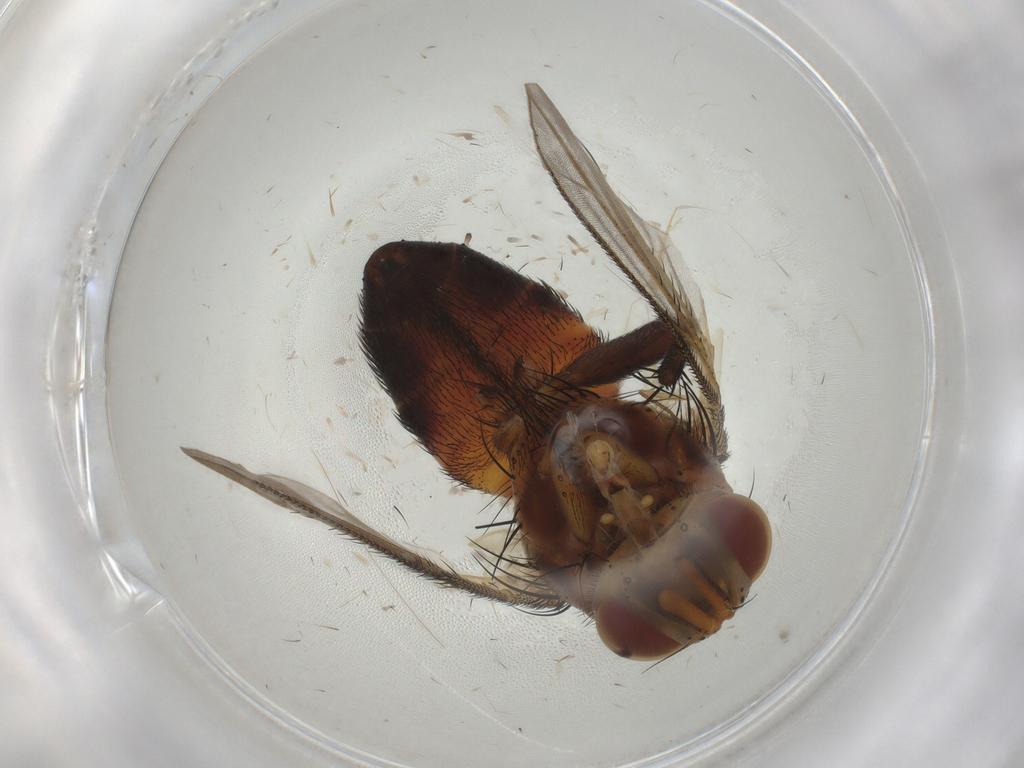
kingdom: Animalia
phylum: Arthropoda
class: Insecta
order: Diptera
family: Sciaridae
